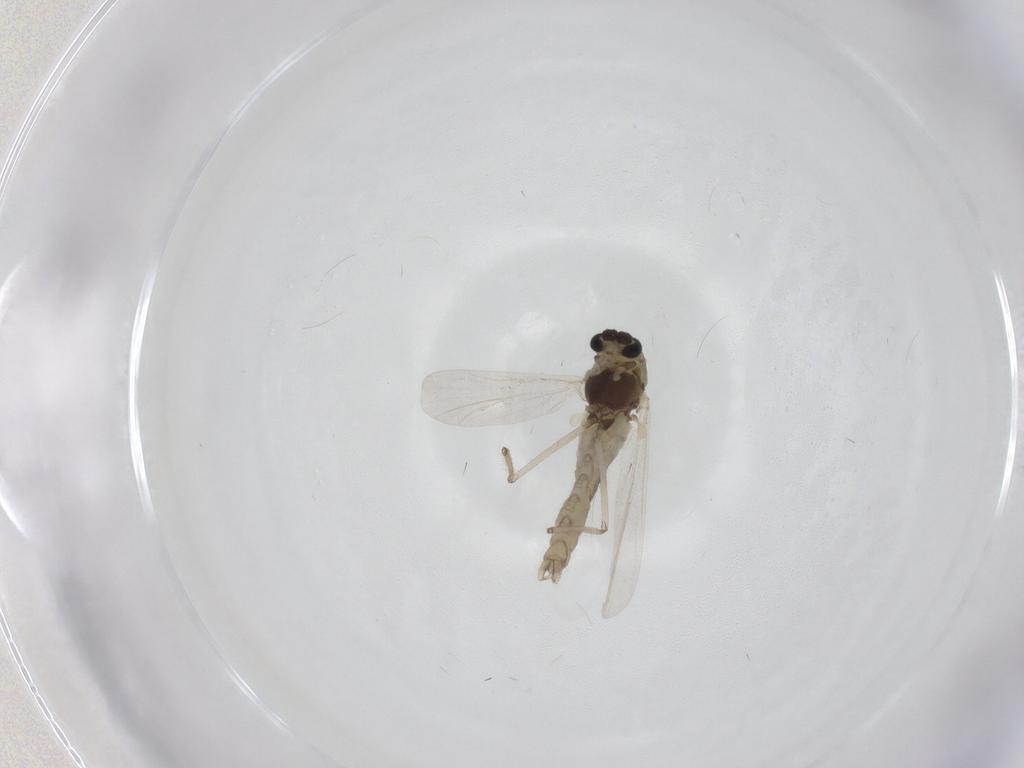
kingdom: Animalia
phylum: Arthropoda
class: Insecta
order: Diptera
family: Chironomidae
